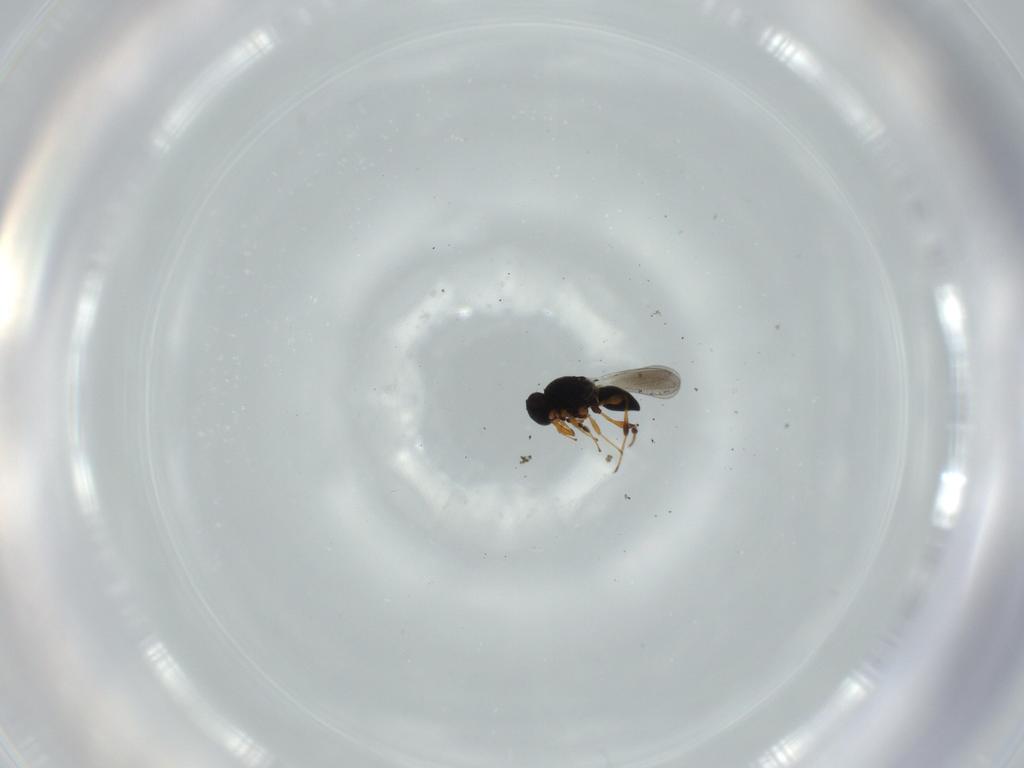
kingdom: Animalia
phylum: Arthropoda
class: Insecta
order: Hymenoptera
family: Platygastridae
